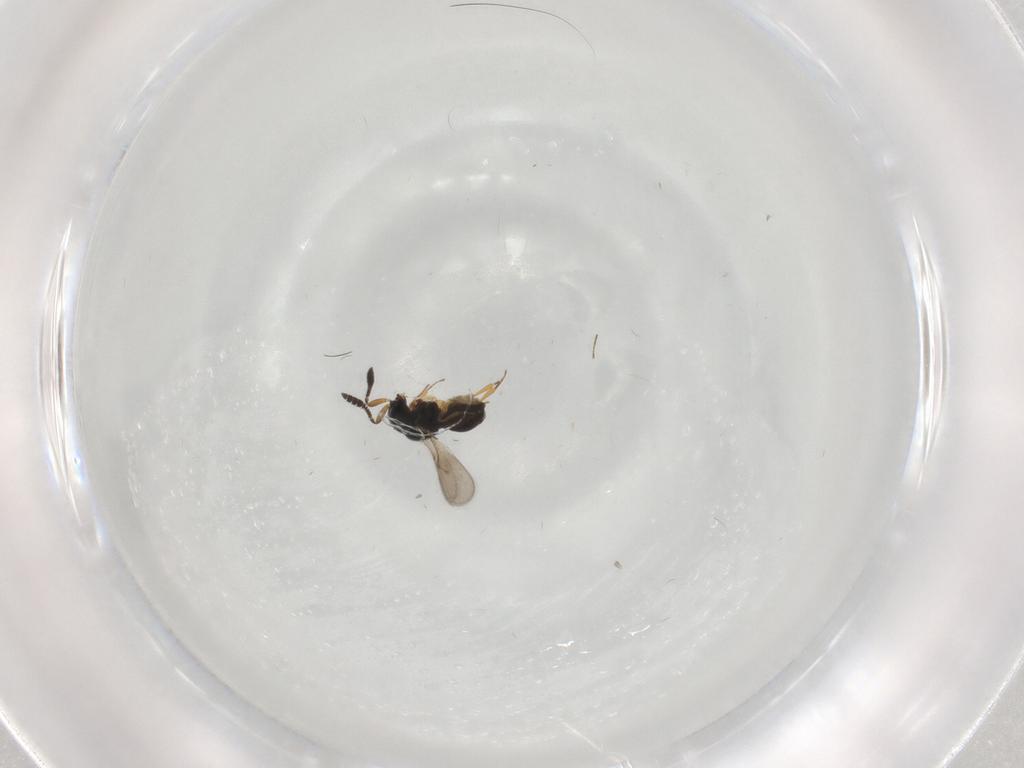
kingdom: Animalia
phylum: Arthropoda
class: Insecta
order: Hymenoptera
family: Scelionidae
